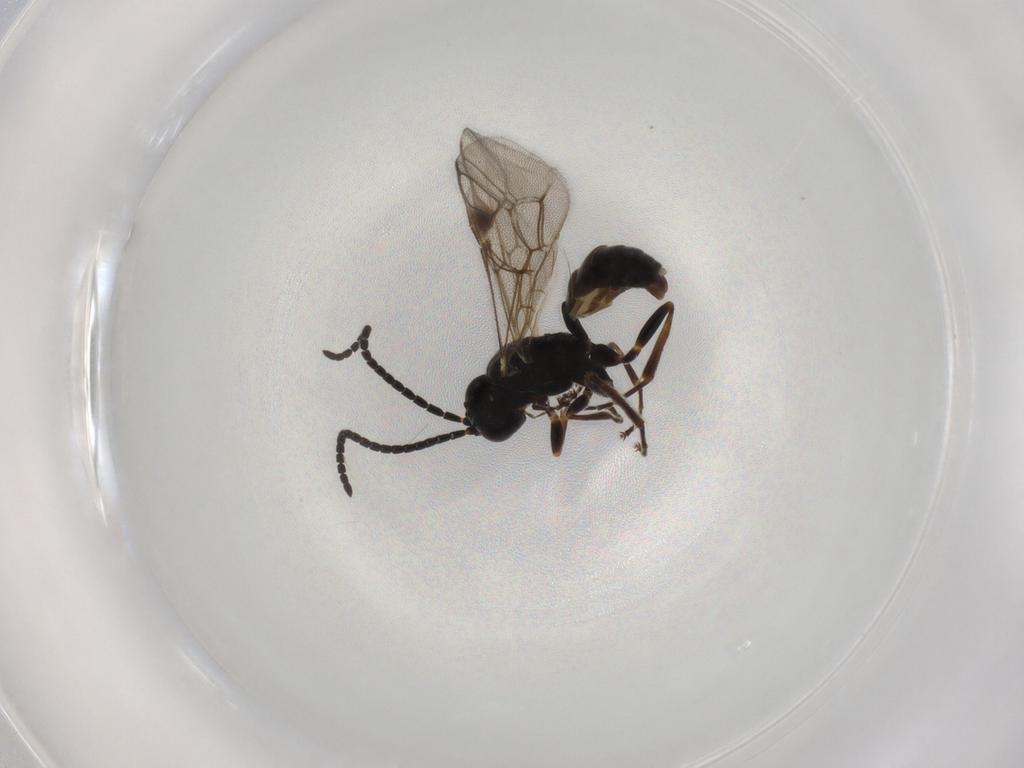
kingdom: Animalia
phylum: Arthropoda
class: Insecta
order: Hymenoptera
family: Ichneumonidae
